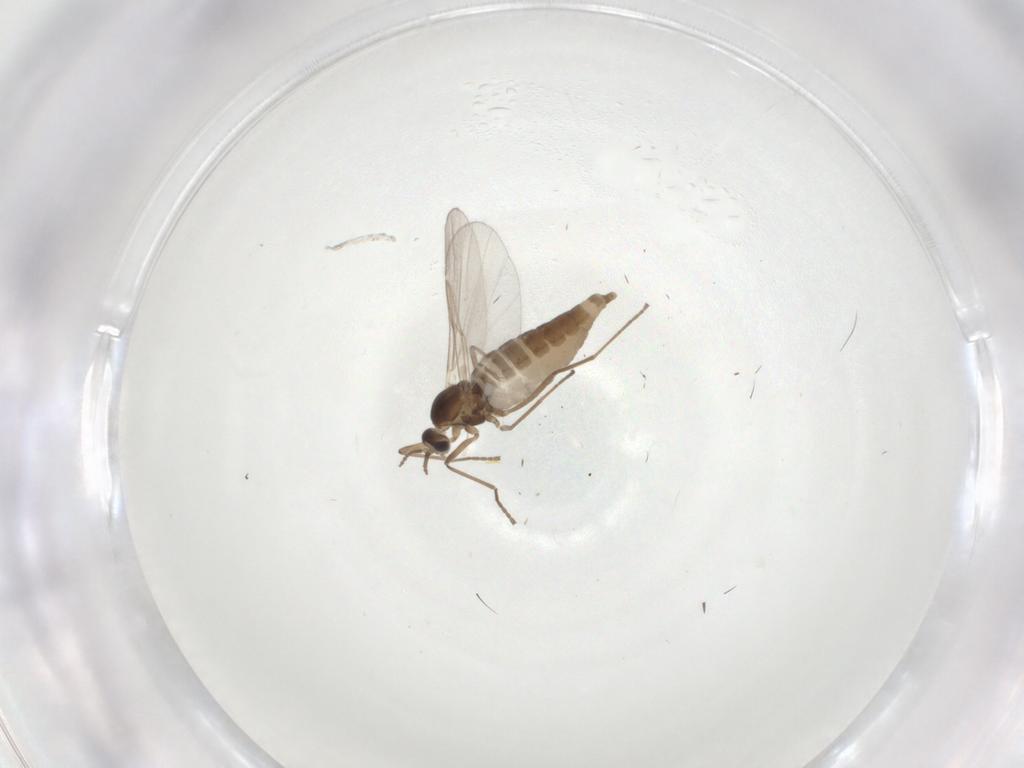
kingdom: Animalia
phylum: Arthropoda
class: Insecta
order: Diptera
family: Cecidomyiidae
